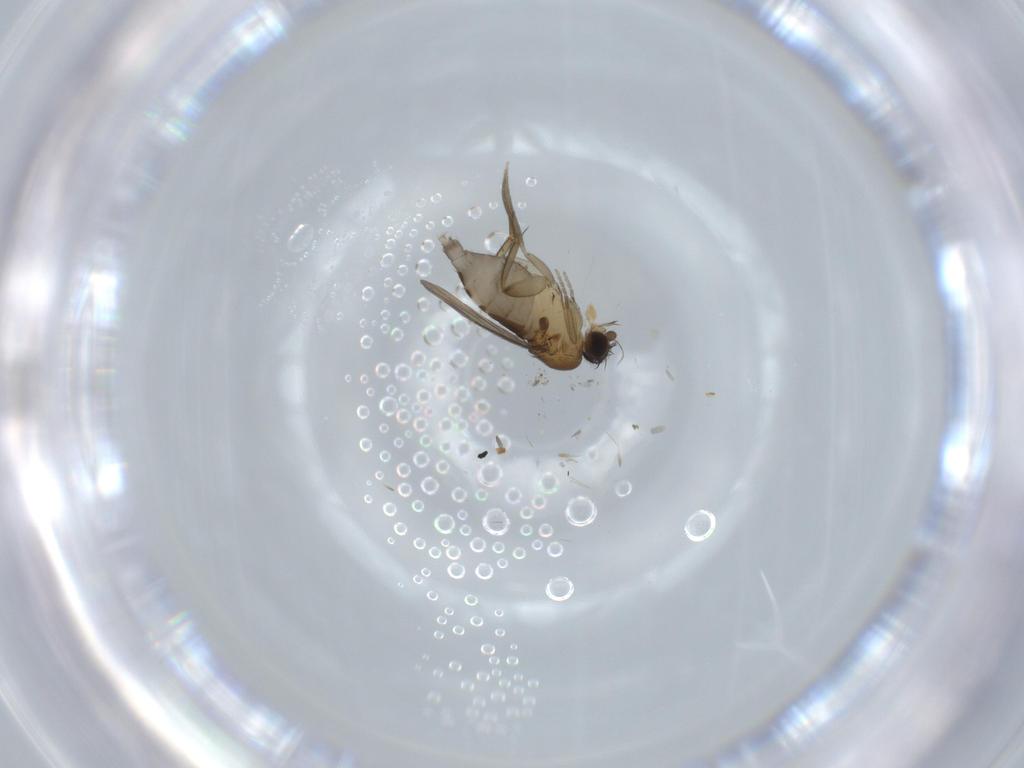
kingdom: Animalia
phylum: Arthropoda
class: Insecta
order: Diptera
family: Phoridae
